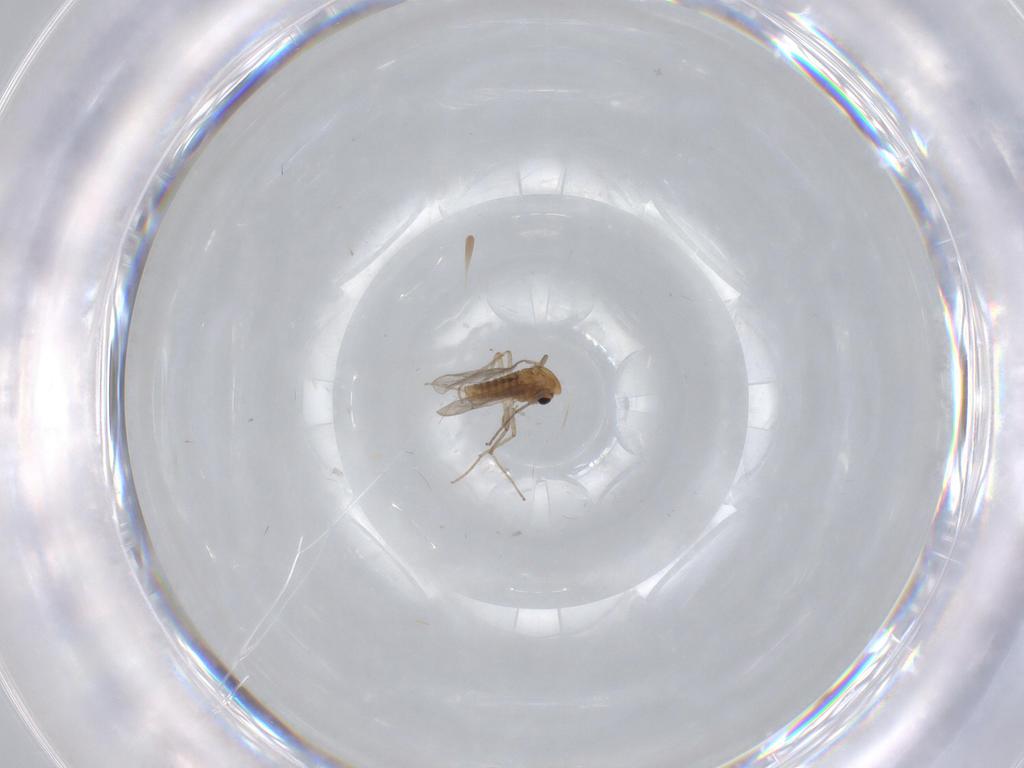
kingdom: Animalia
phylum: Arthropoda
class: Insecta
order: Diptera
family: Chironomidae
